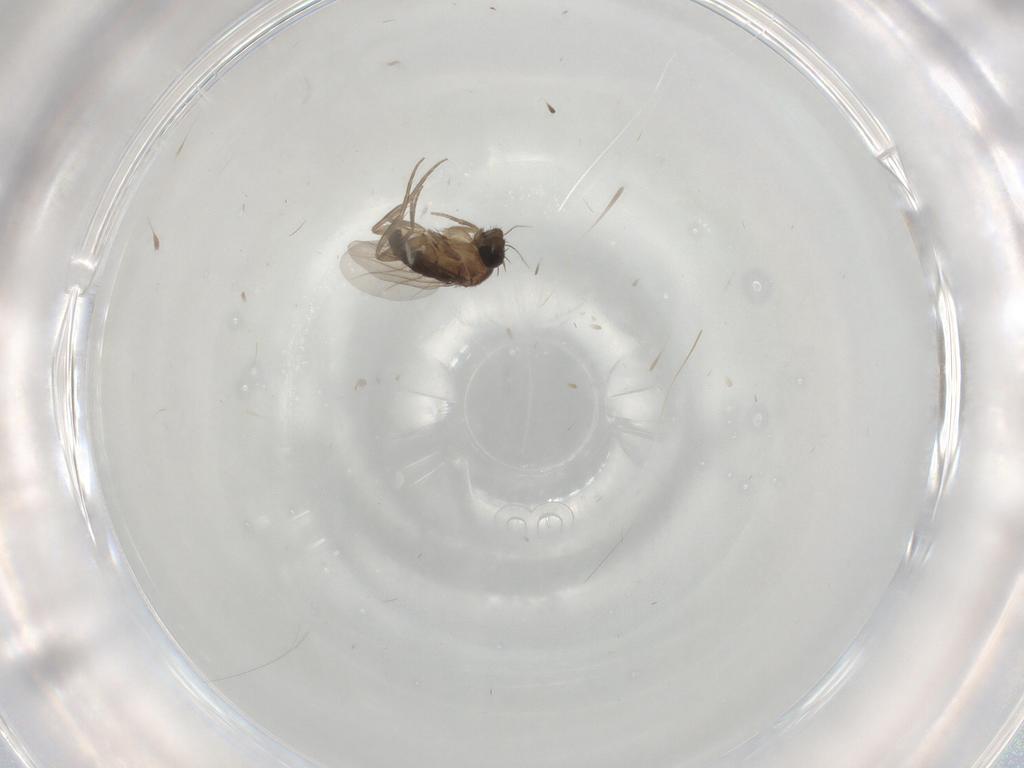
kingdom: Animalia
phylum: Arthropoda
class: Insecta
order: Diptera
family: Phoridae
